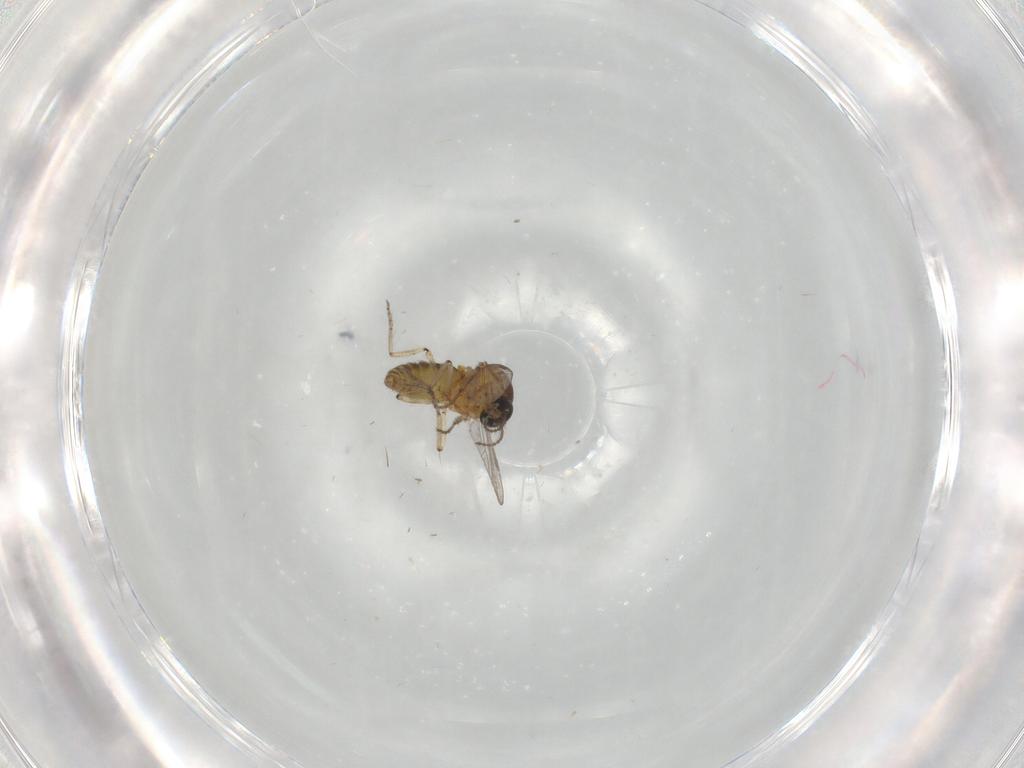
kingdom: Animalia
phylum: Arthropoda
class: Insecta
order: Diptera
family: Ceratopogonidae
